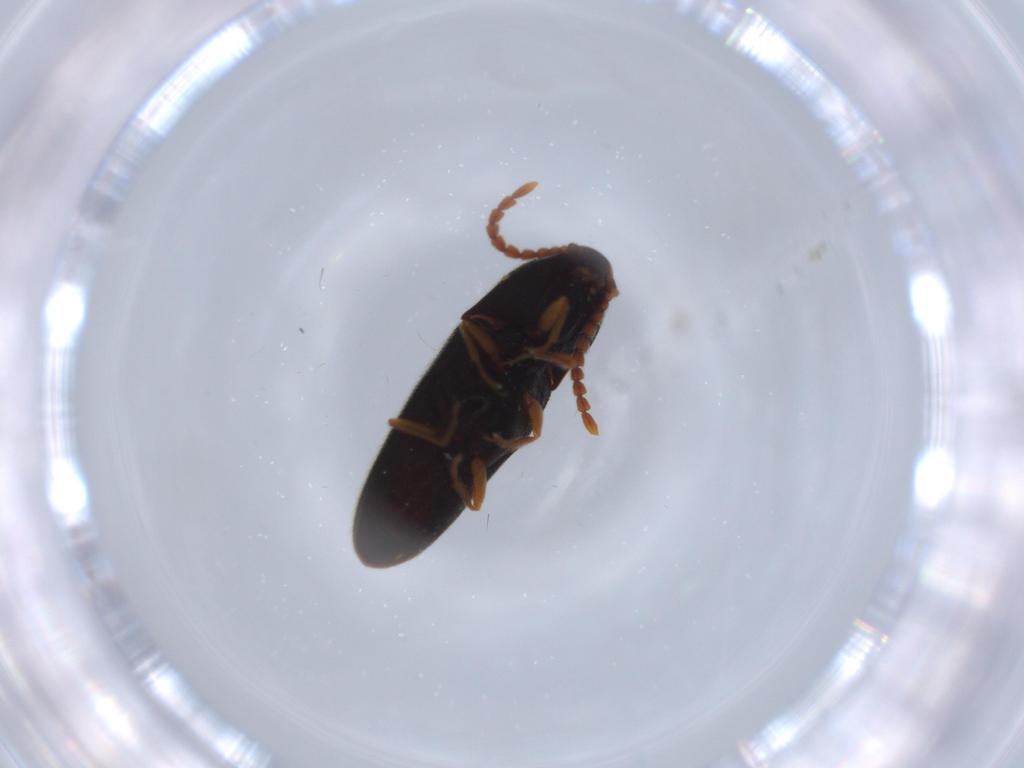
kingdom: Animalia
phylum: Arthropoda
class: Insecta
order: Coleoptera
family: Elateridae
